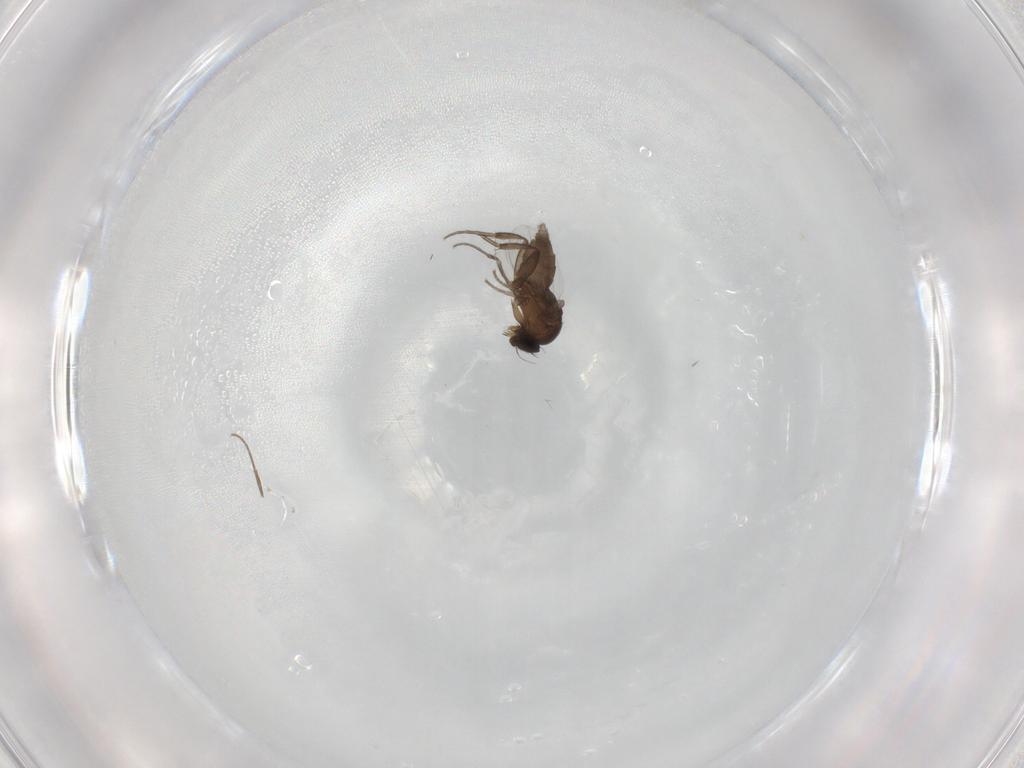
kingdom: Animalia
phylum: Arthropoda
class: Insecta
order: Diptera
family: Phoridae
